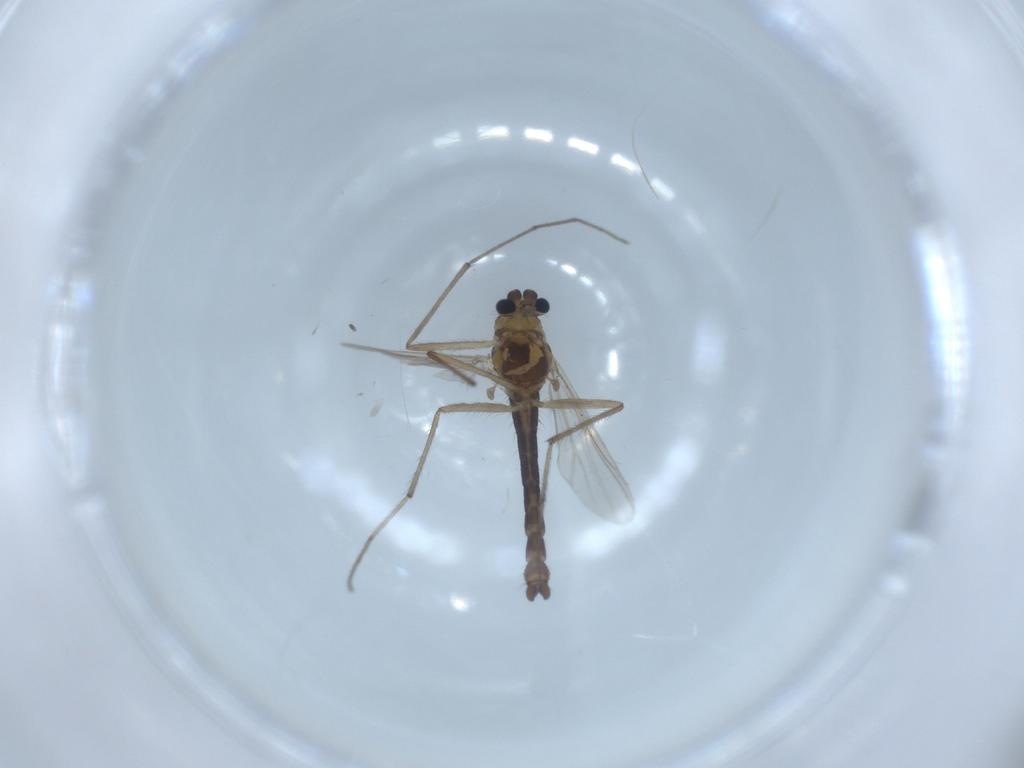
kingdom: Animalia
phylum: Arthropoda
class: Insecta
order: Diptera
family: Chironomidae
